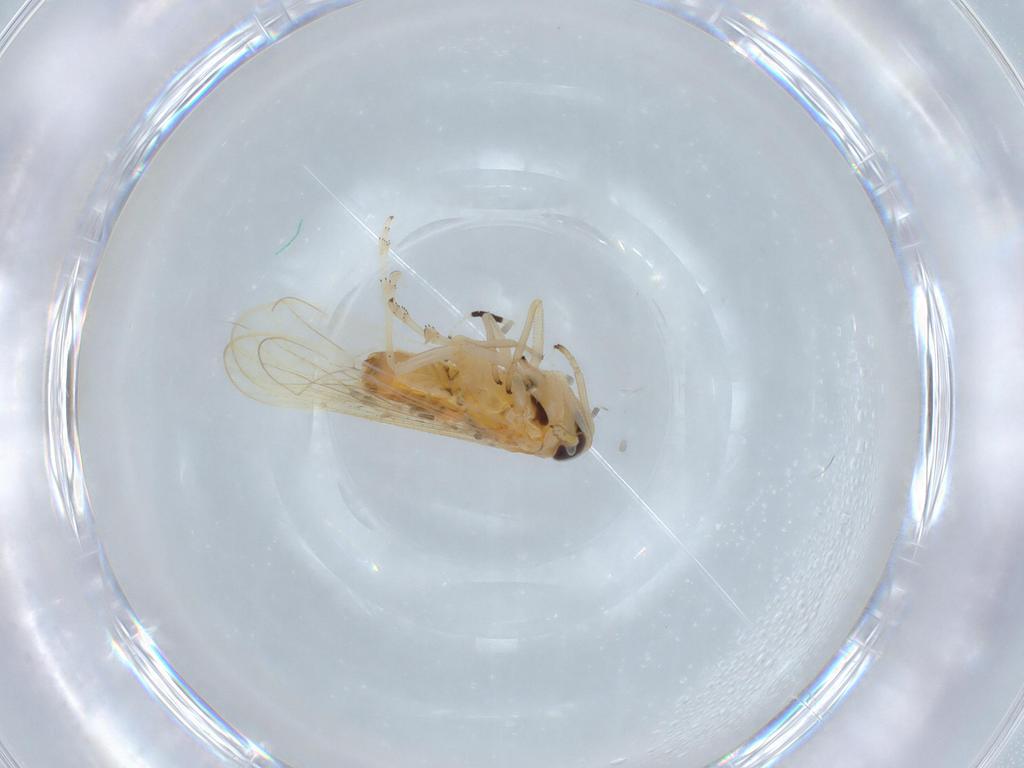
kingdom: Animalia
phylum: Arthropoda
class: Insecta
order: Hemiptera
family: Delphacidae
